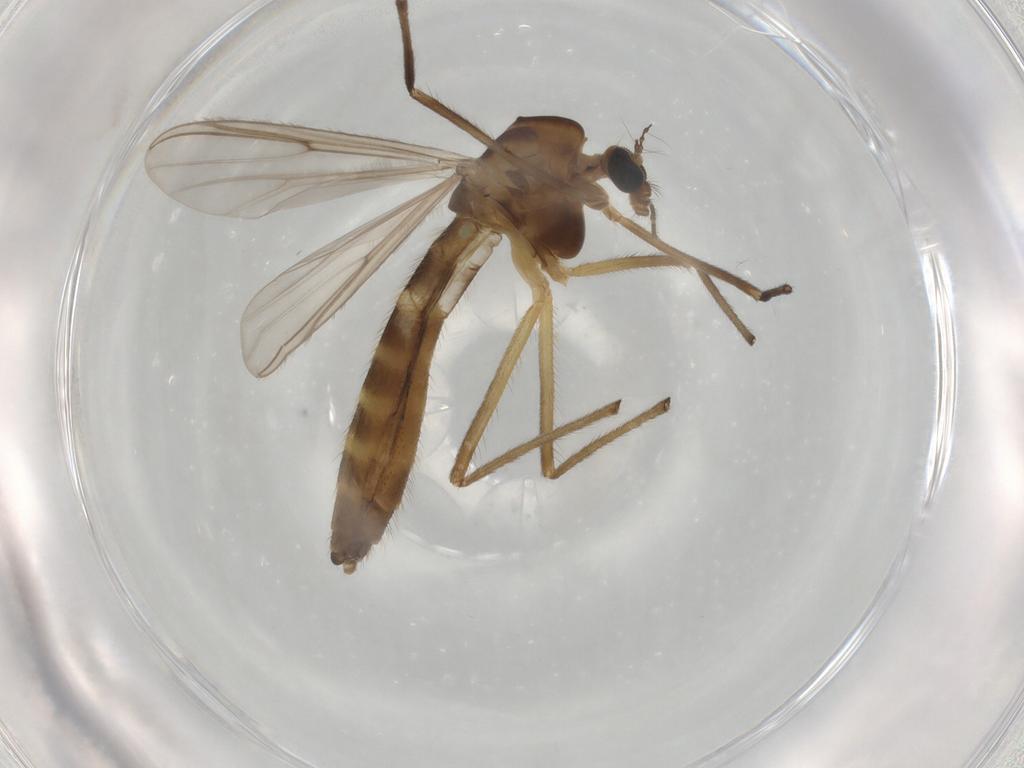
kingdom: Animalia
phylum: Arthropoda
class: Insecta
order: Diptera
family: Chironomidae
